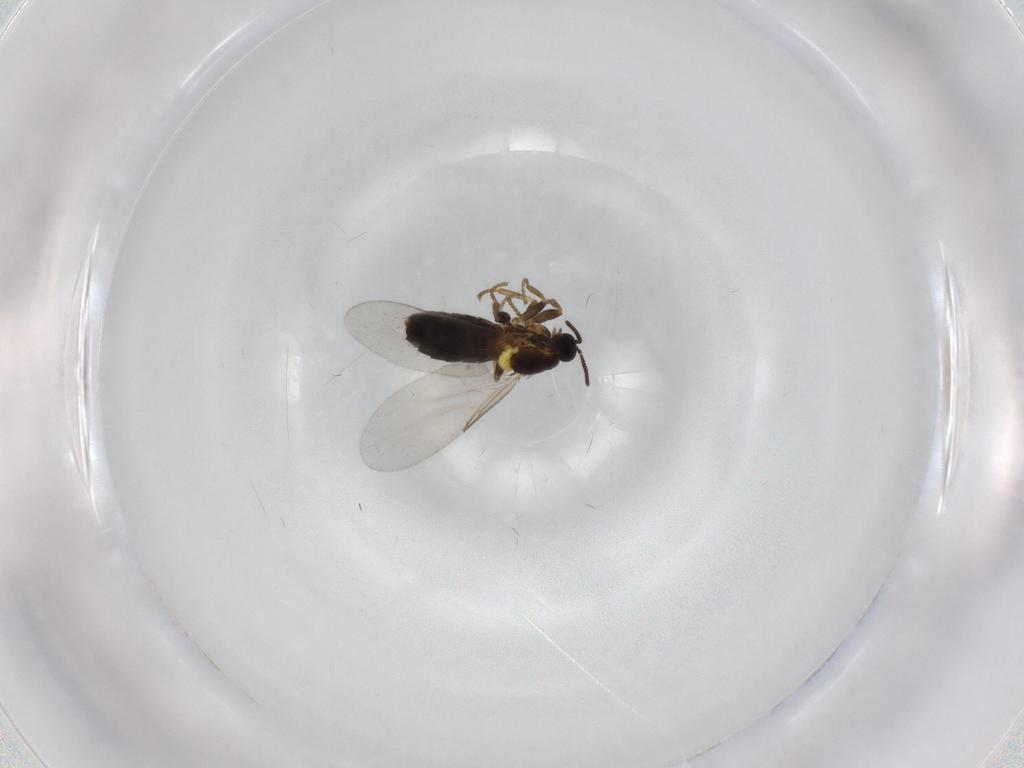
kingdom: Animalia
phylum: Arthropoda
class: Insecta
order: Diptera
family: Scatopsidae
